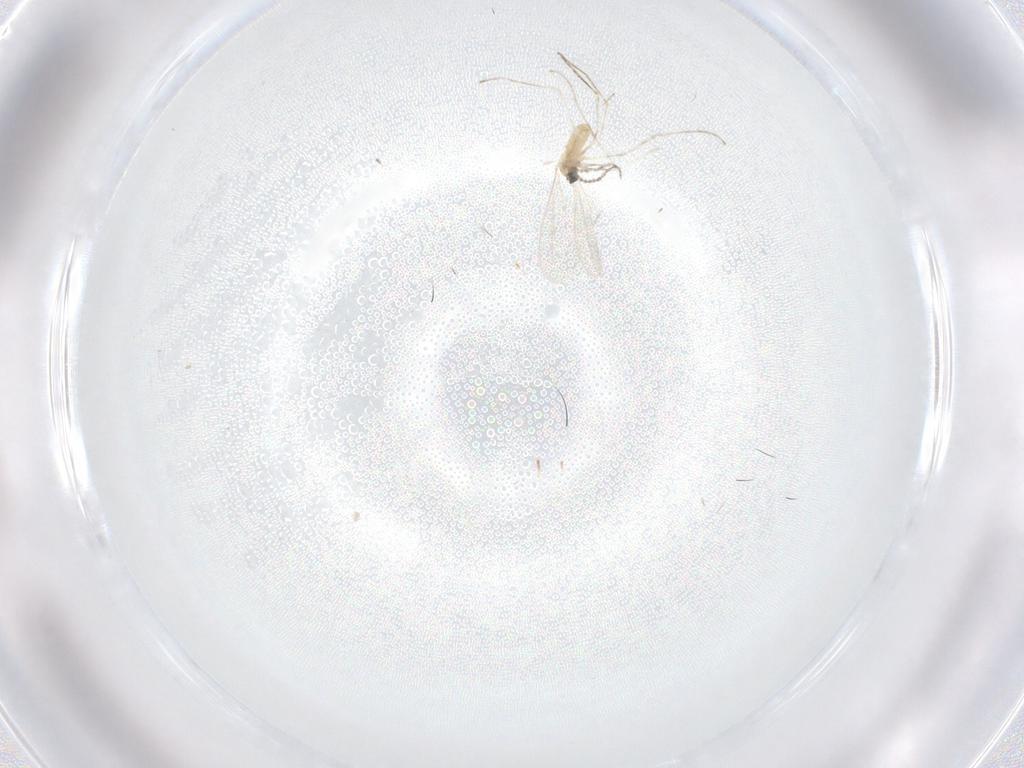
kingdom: Animalia
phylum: Arthropoda
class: Insecta
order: Diptera
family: Cecidomyiidae
